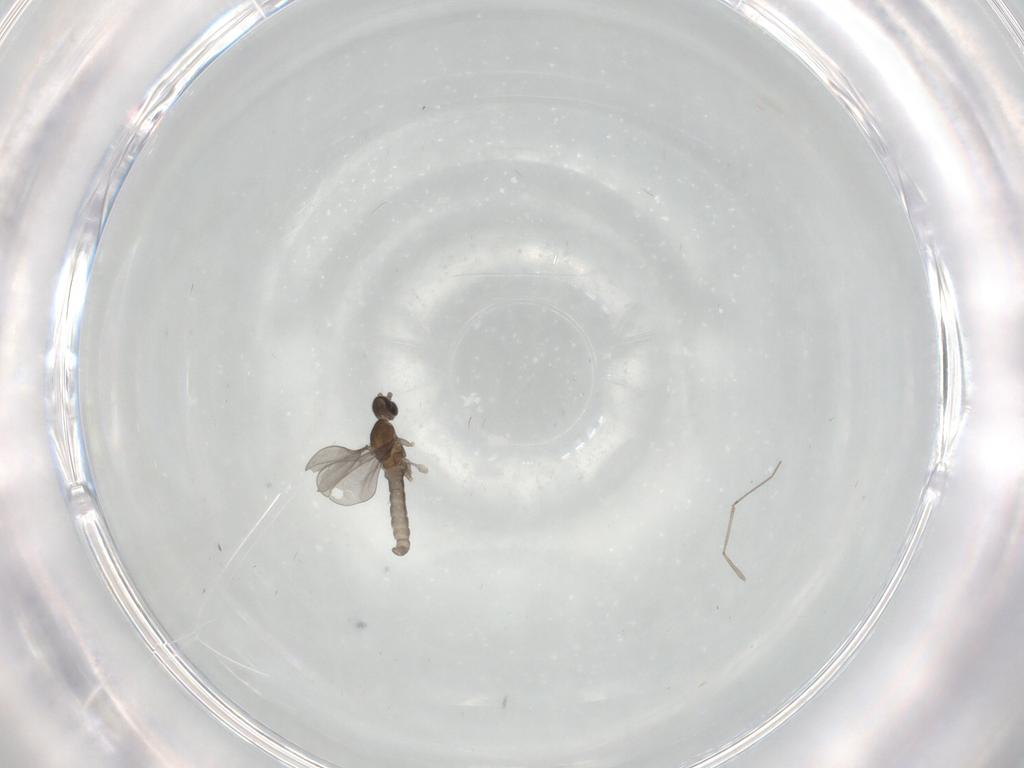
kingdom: Animalia
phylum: Arthropoda
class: Insecta
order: Diptera
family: Cecidomyiidae
